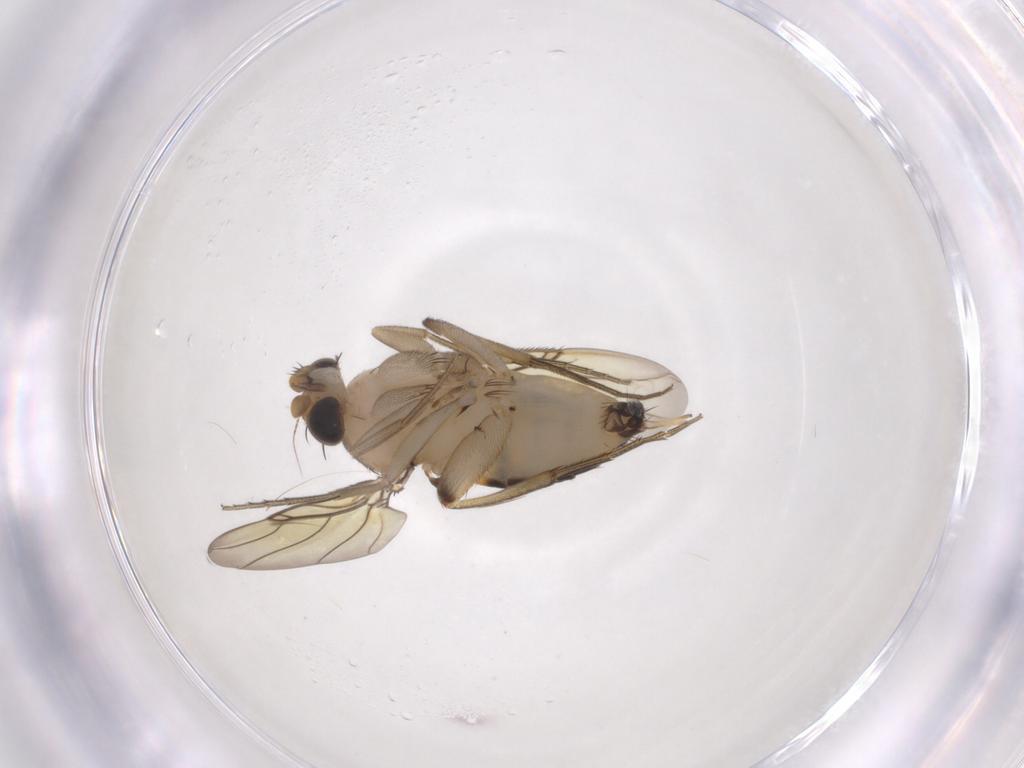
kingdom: Animalia
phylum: Arthropoda
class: Insecta
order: Diptera
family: Phoridae
